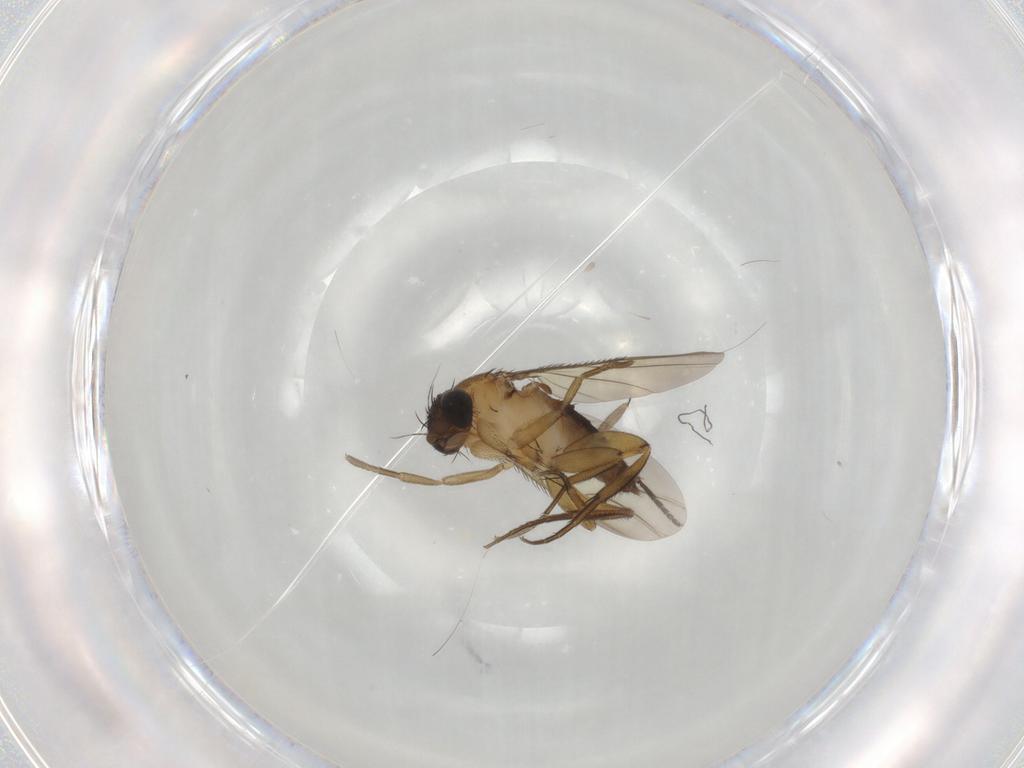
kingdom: Animalia
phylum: Arthropoda
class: Insecta
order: Diptera
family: Phoridae
